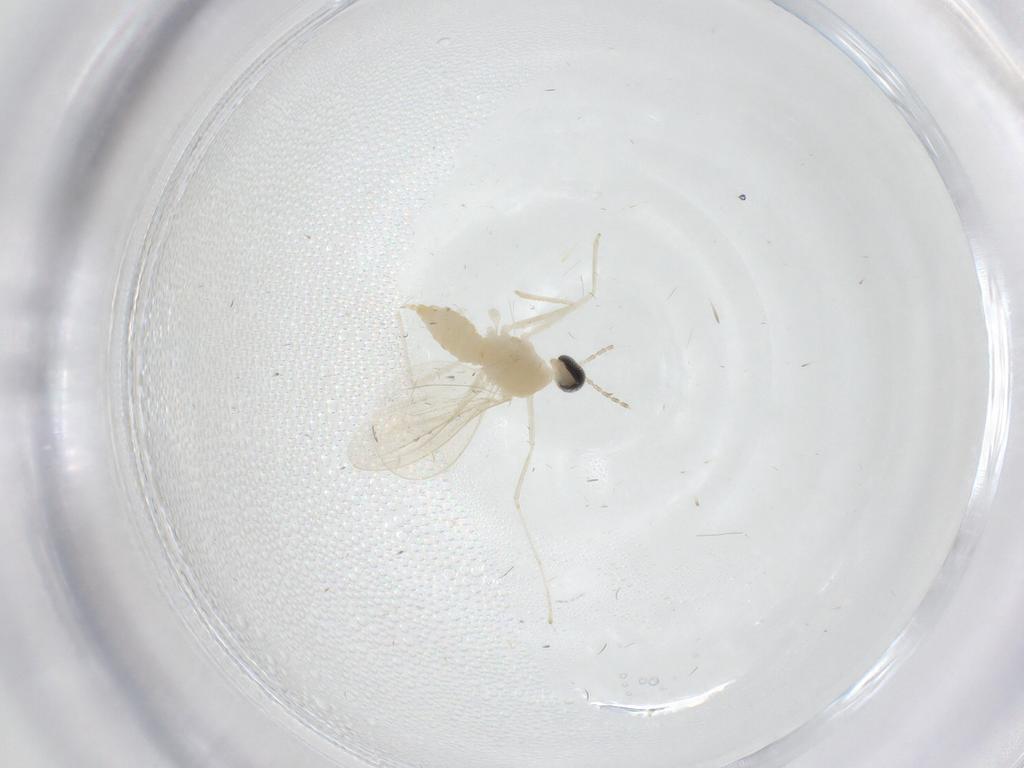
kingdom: Animalia
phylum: Arthropoda
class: Insecta
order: Diptera
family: Cecidomyiidae
